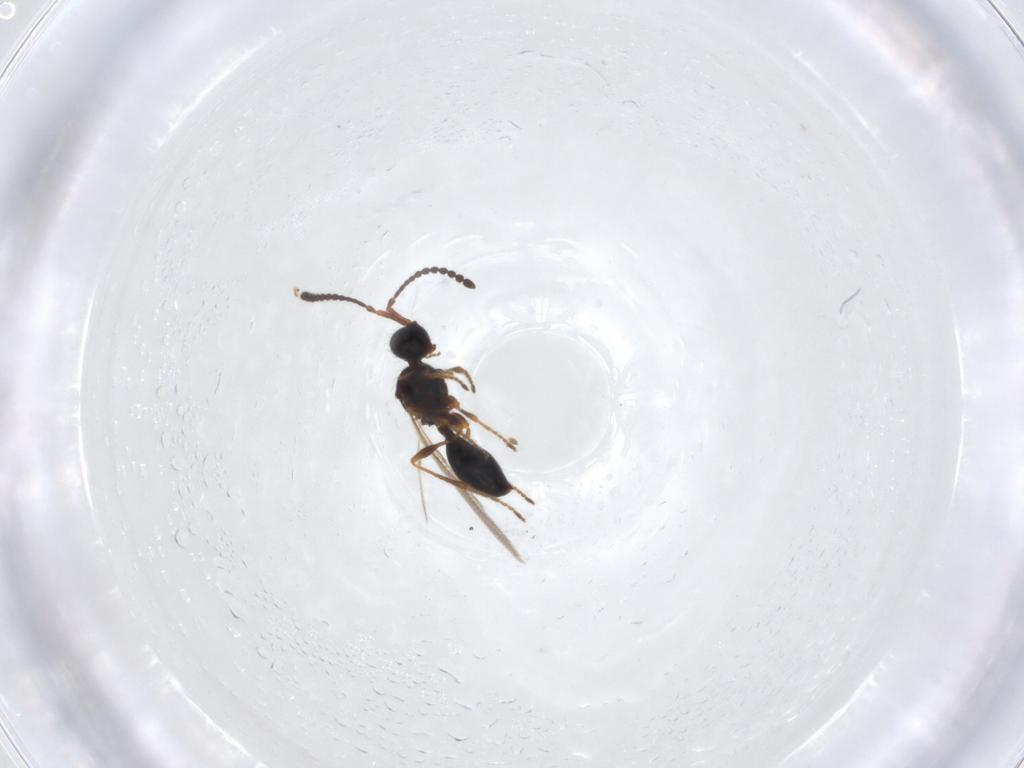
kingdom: Animalia
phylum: Arthropoda
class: Insecta
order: Hymenoptera
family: Diapriidae
